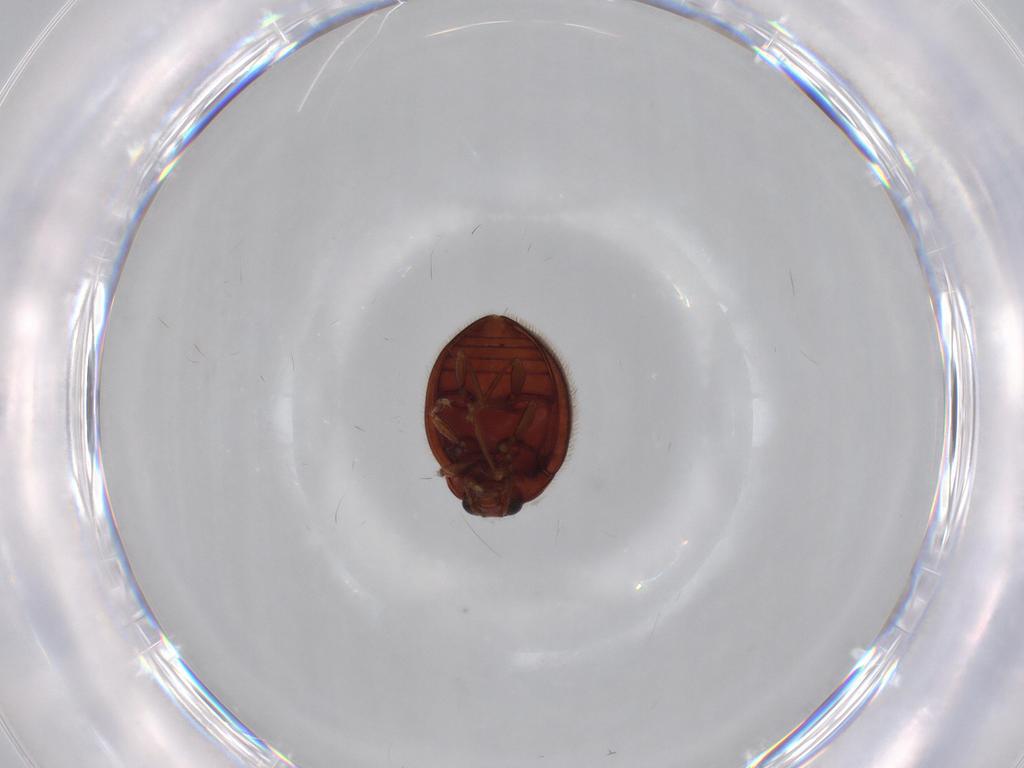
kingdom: Animalia
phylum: Arthropoda
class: Insecta
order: Coleoptera
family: Anamorphidae
